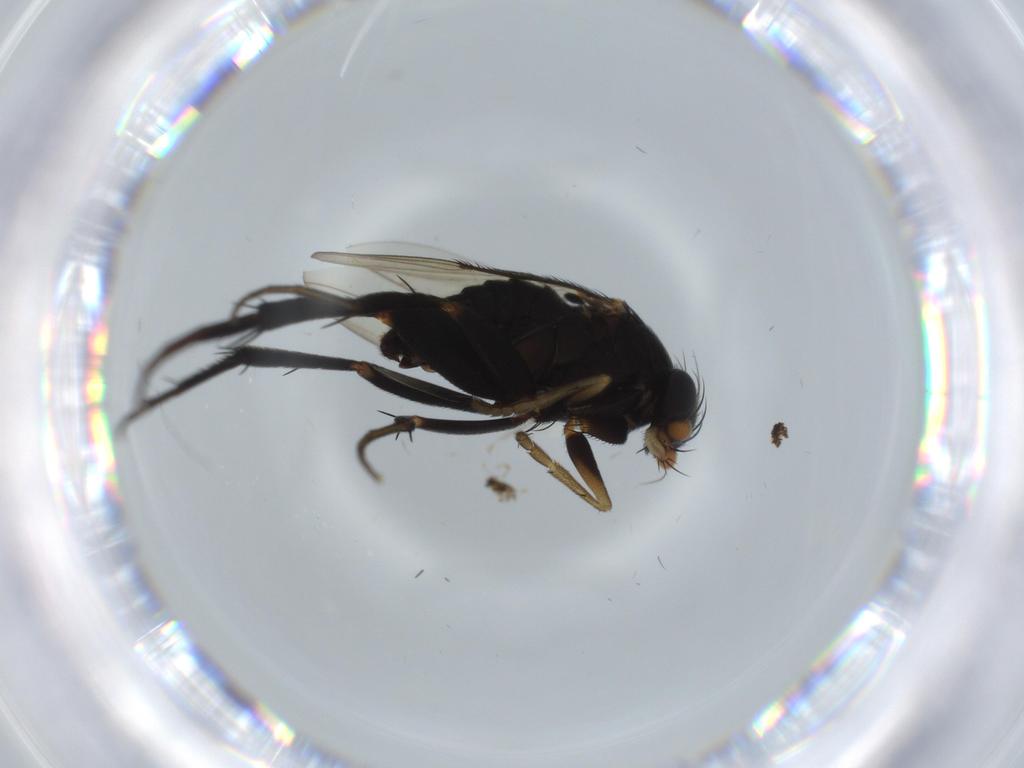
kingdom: Animalia
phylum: Arthropoda
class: Insecta
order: Diptera
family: Phoridae
